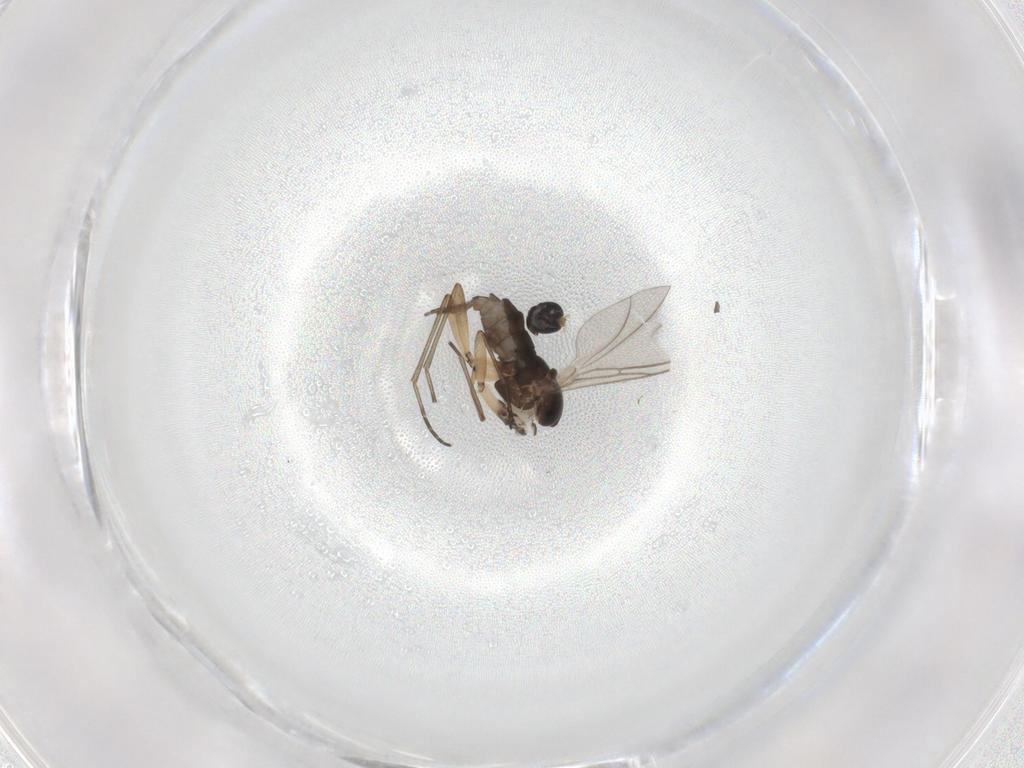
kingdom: Animalia
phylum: Arthropoda
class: Insecta
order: Diptera
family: Sciaridae
